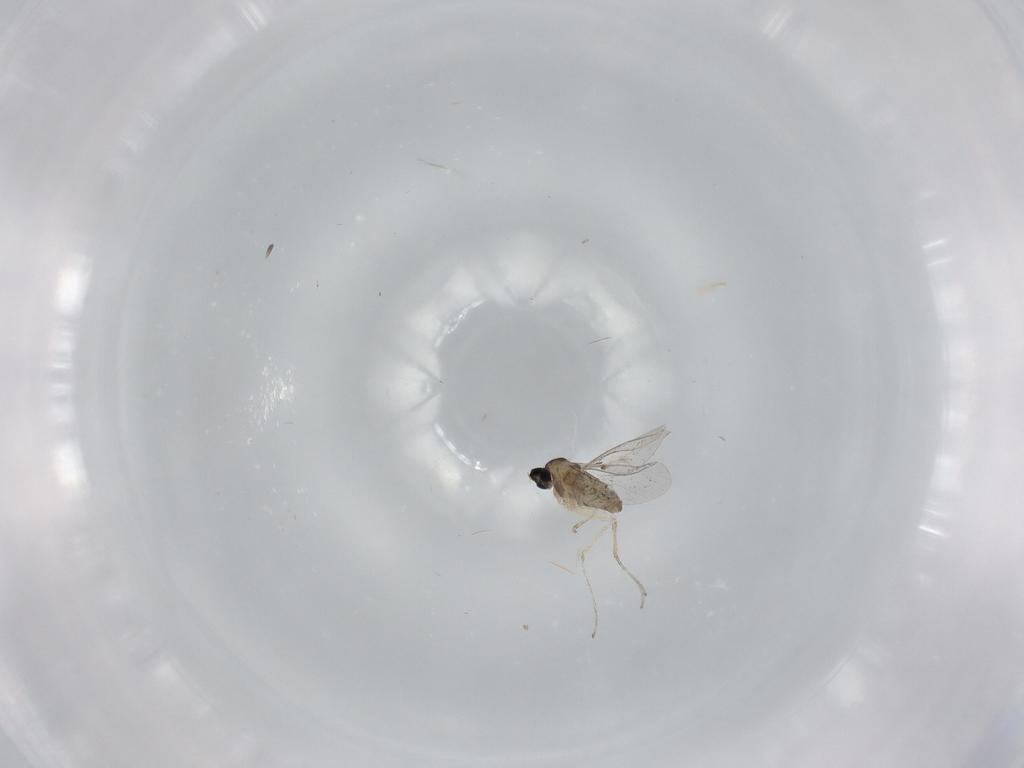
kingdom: Animalia
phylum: Arthropoda
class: Insecta
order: Diptera
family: Cecidomyiidae
